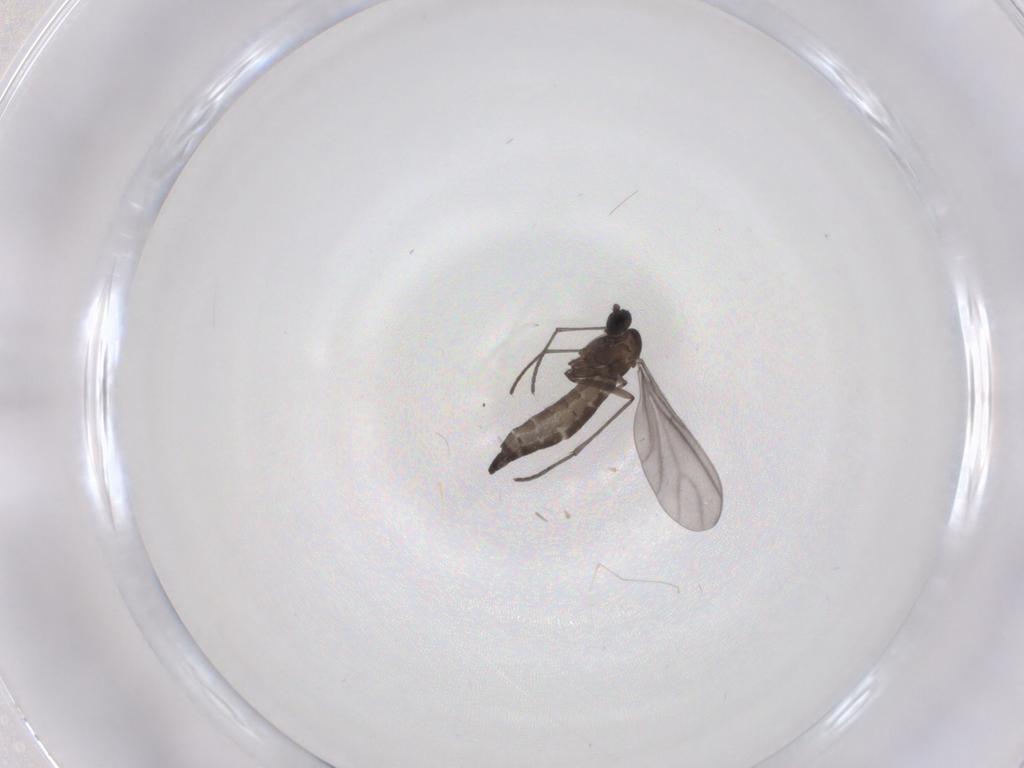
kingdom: Animalia
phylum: Arthropoda
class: Insecta
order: Diptera
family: Sciaridae
